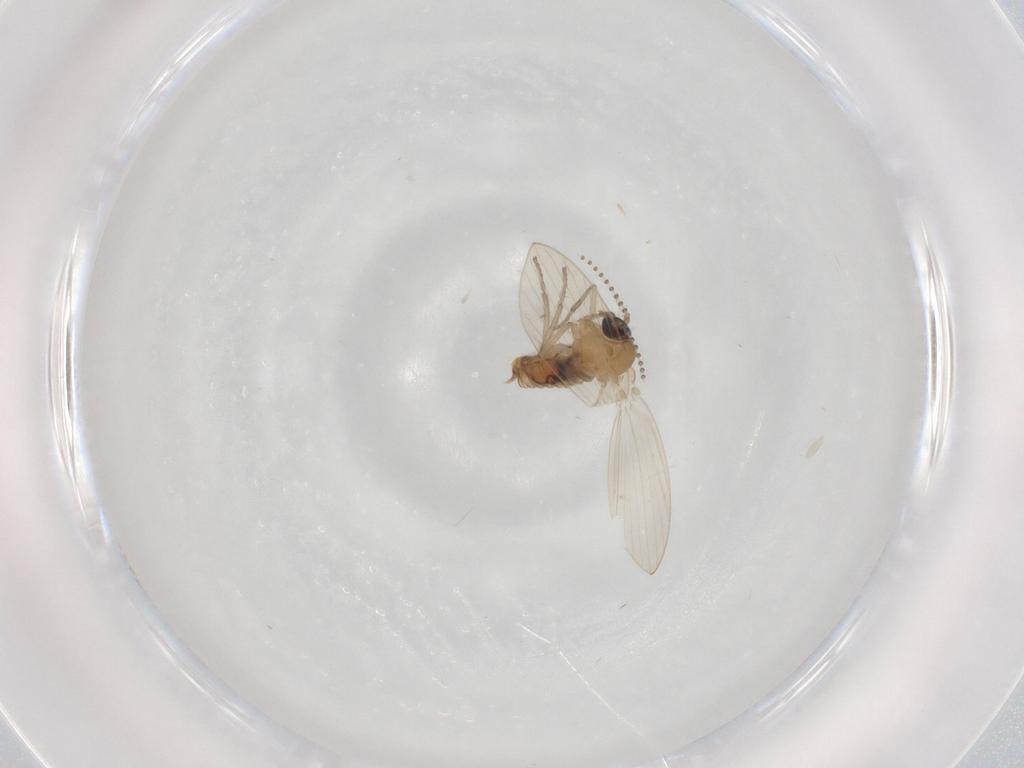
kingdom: Animalia
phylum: Arthropoda
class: Insecta
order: Diptera
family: Psychodidae
